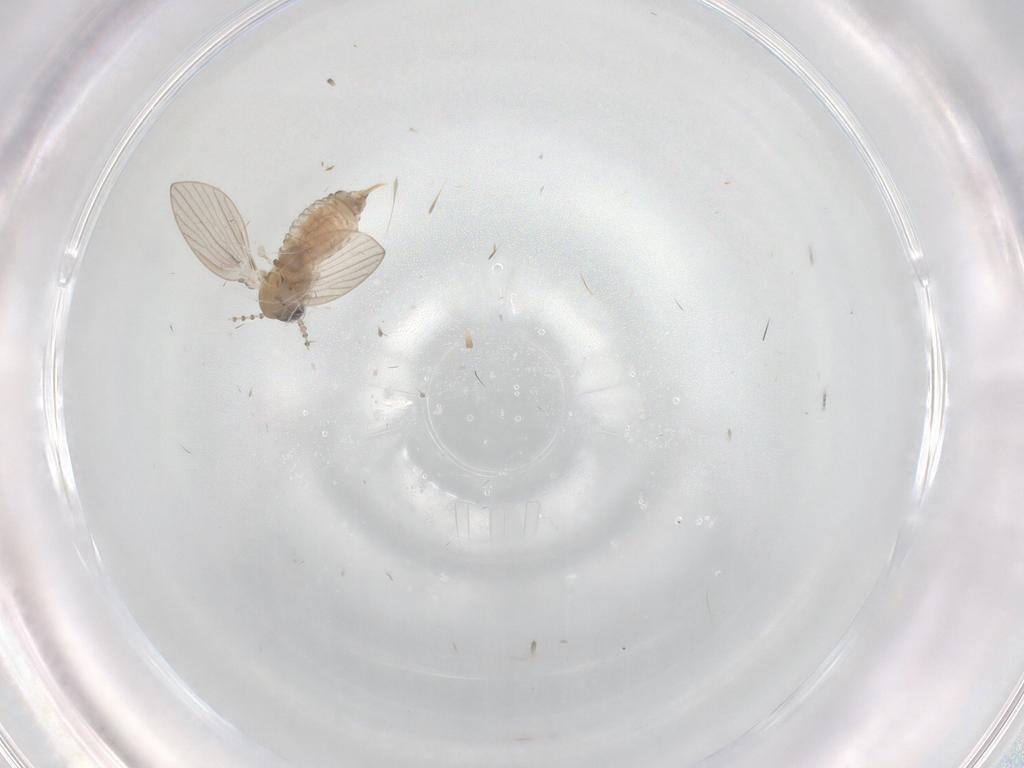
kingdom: Animalia
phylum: Arthropoda
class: Insecta
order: Diptera
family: Psychodidae
